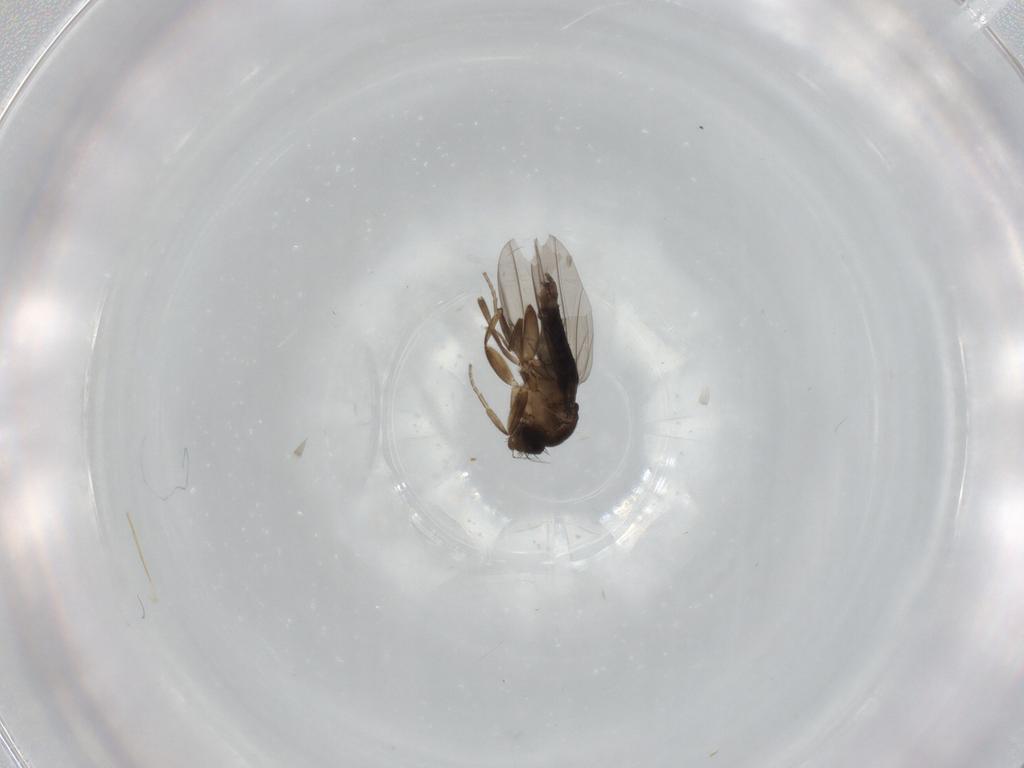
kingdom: Animalia
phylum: Arthropoda
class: Insecta
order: Diptera
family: Phoridae
